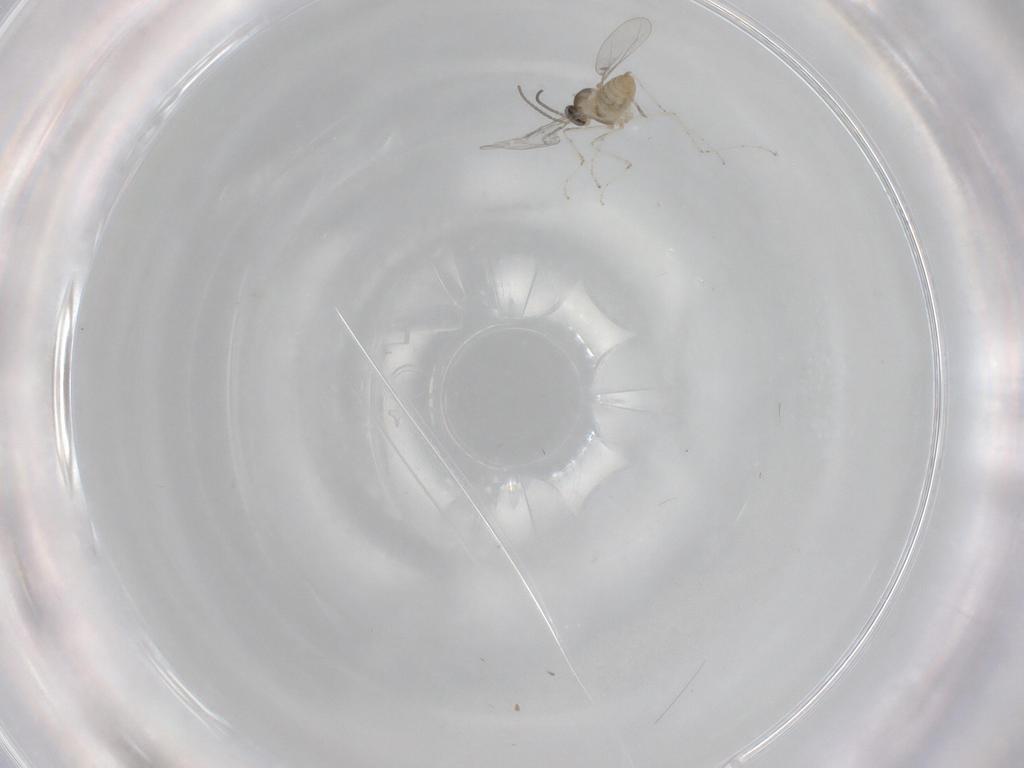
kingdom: Animalia
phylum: Arthropoda
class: Insecta
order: Diptera
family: Cecidomyiidae
